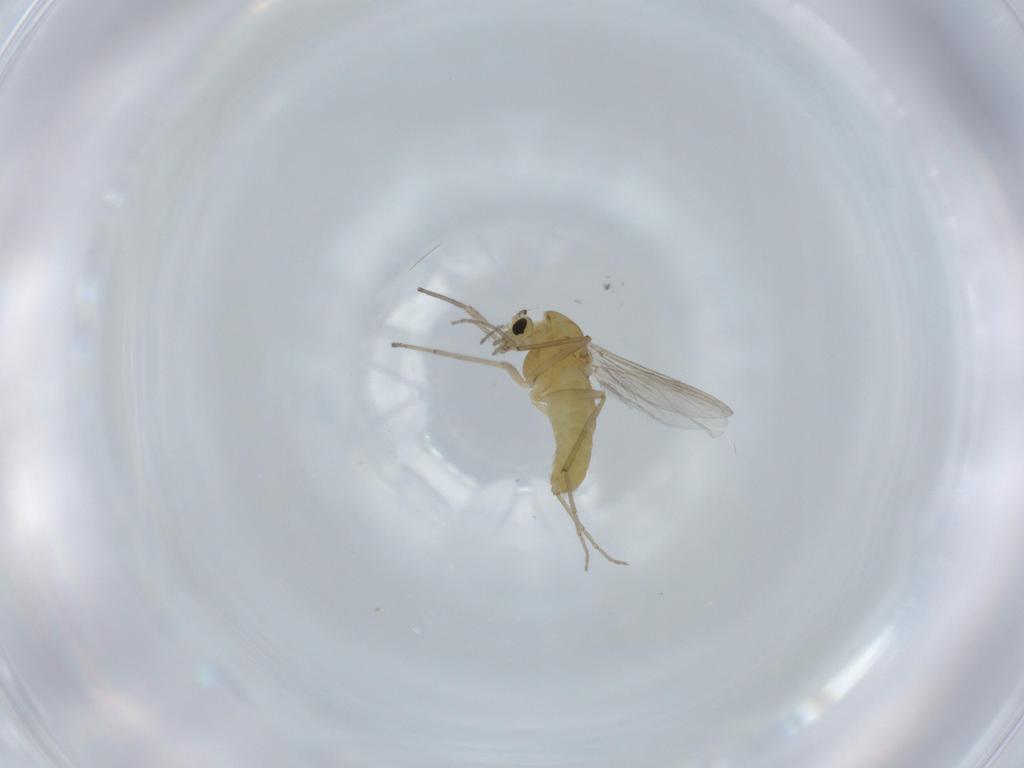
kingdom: Animalia
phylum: Arthropoda
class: Insecta
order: Diptera
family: Chironomidae
